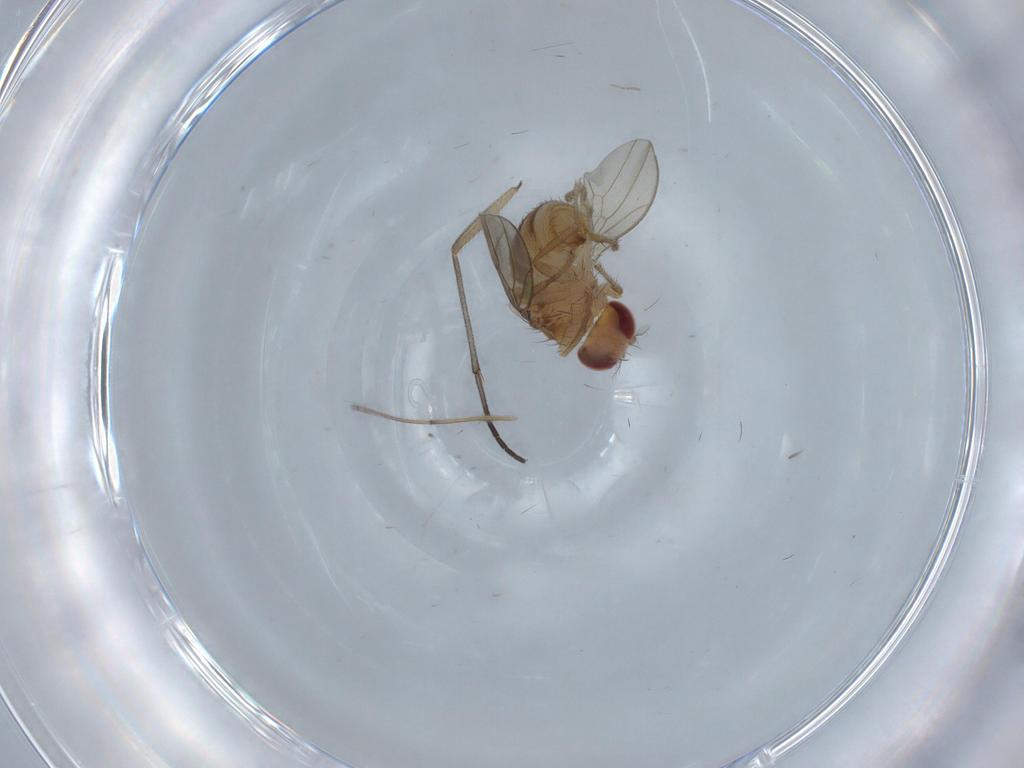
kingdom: Animalia
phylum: Arthropoda
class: Insecta
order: Diptera
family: Drosophilidae
